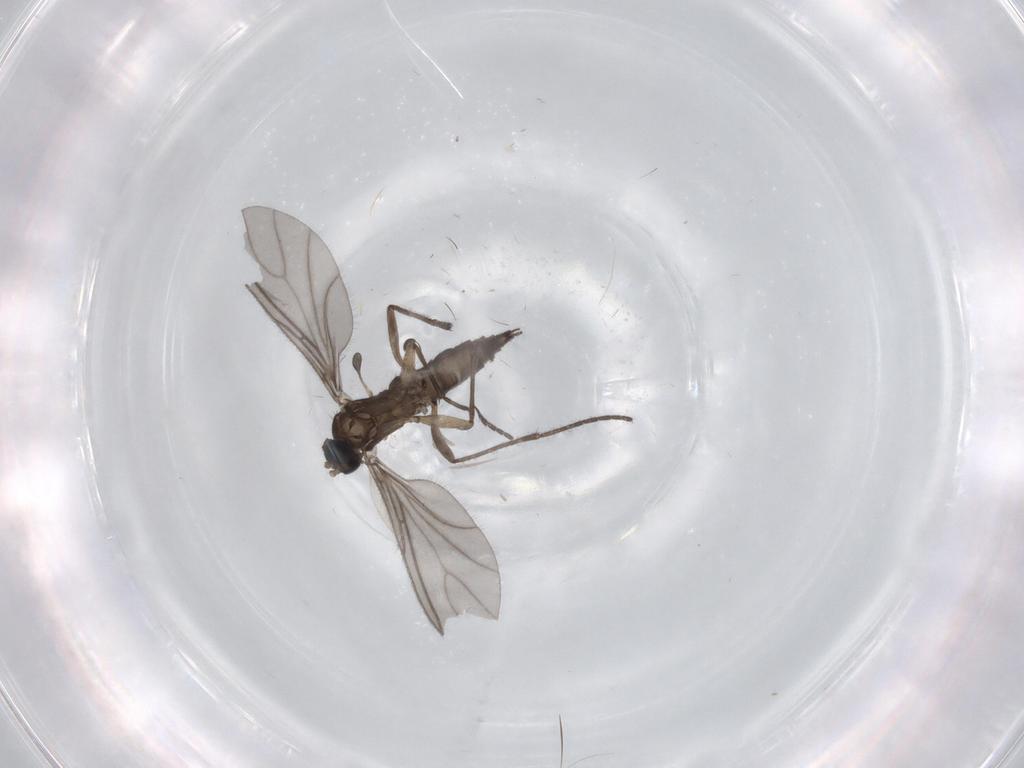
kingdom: Animalia
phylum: Arthropoda
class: Insecta
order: Diptera
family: Sciaridae
